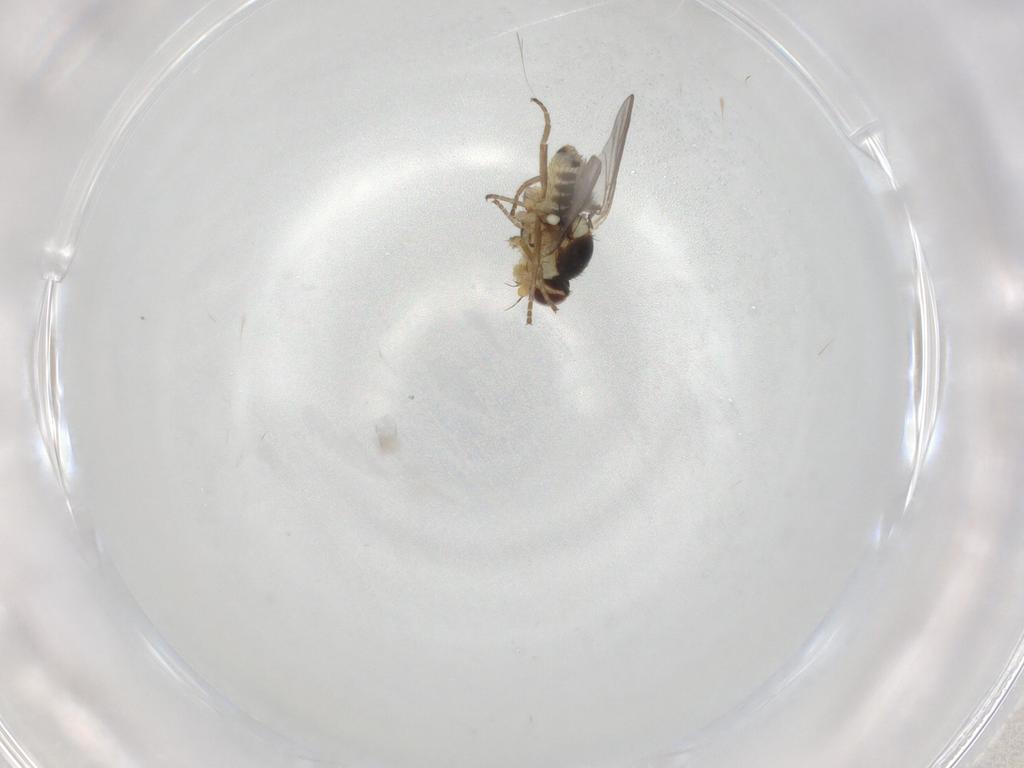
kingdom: Animalia
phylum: Arthropoda
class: Insecta
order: Diptera
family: Agromyzidae
